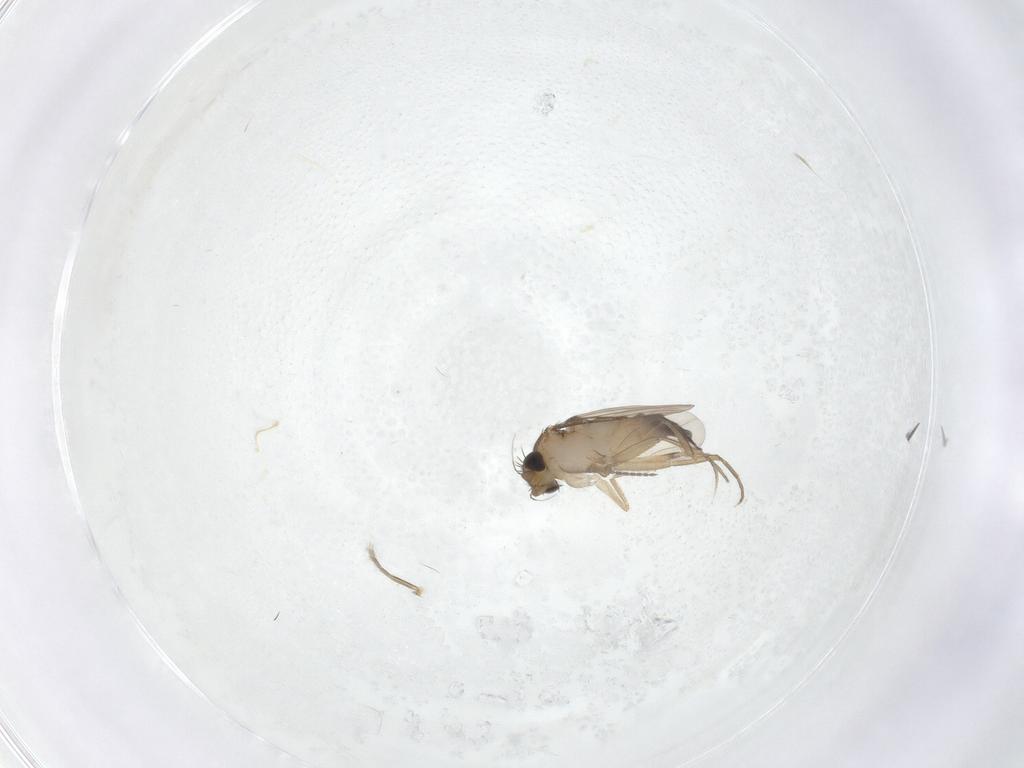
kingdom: Animalia
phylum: Arthropoda
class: Insecta
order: Diptera
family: Phoridae
